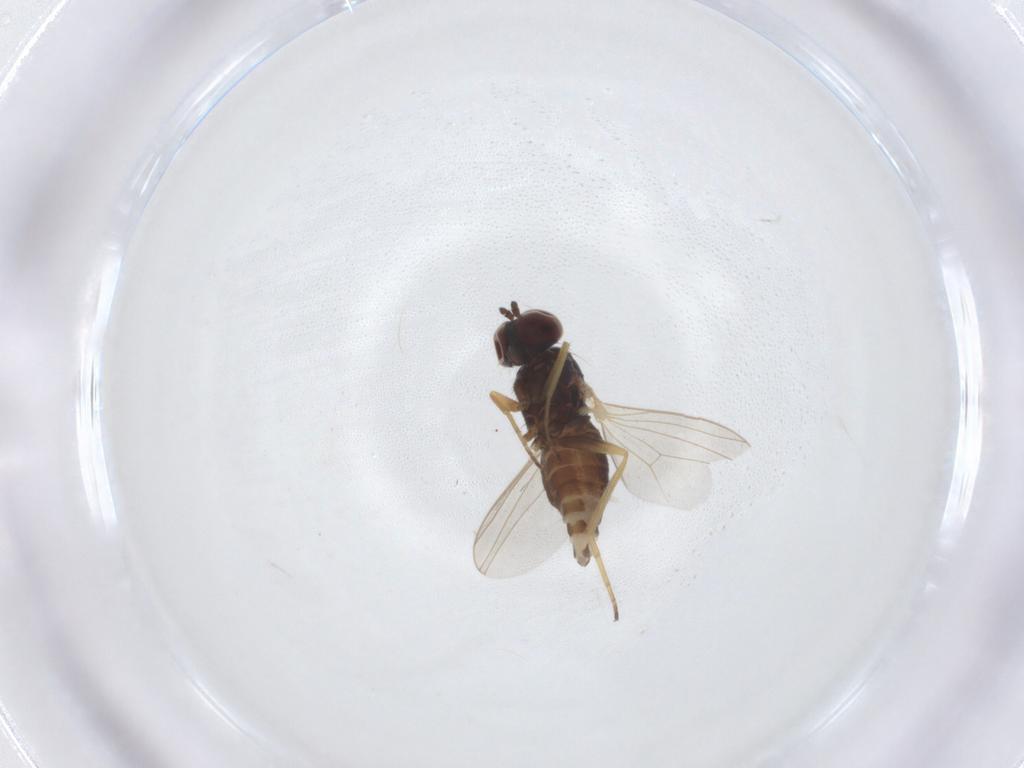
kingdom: Animalia
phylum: Arthropoda
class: Insecta
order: Diptera
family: Dolichopodidae
